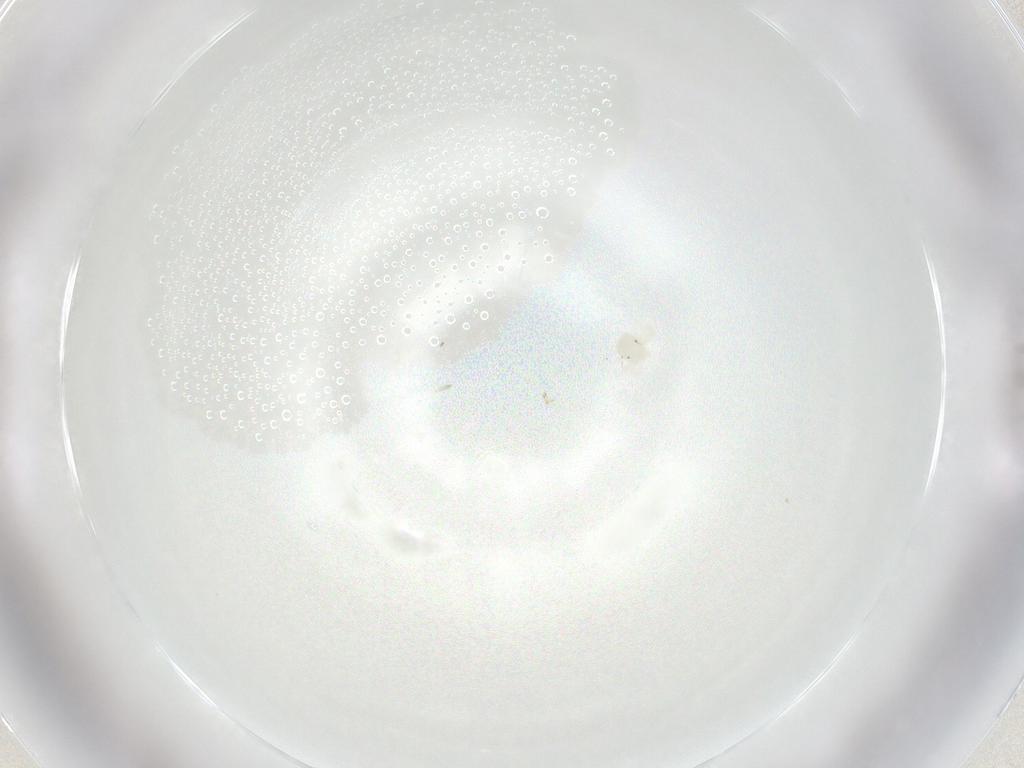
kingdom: Animalia
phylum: Arthropoda
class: Arachnida
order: Trombidiformes
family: Anystidae
